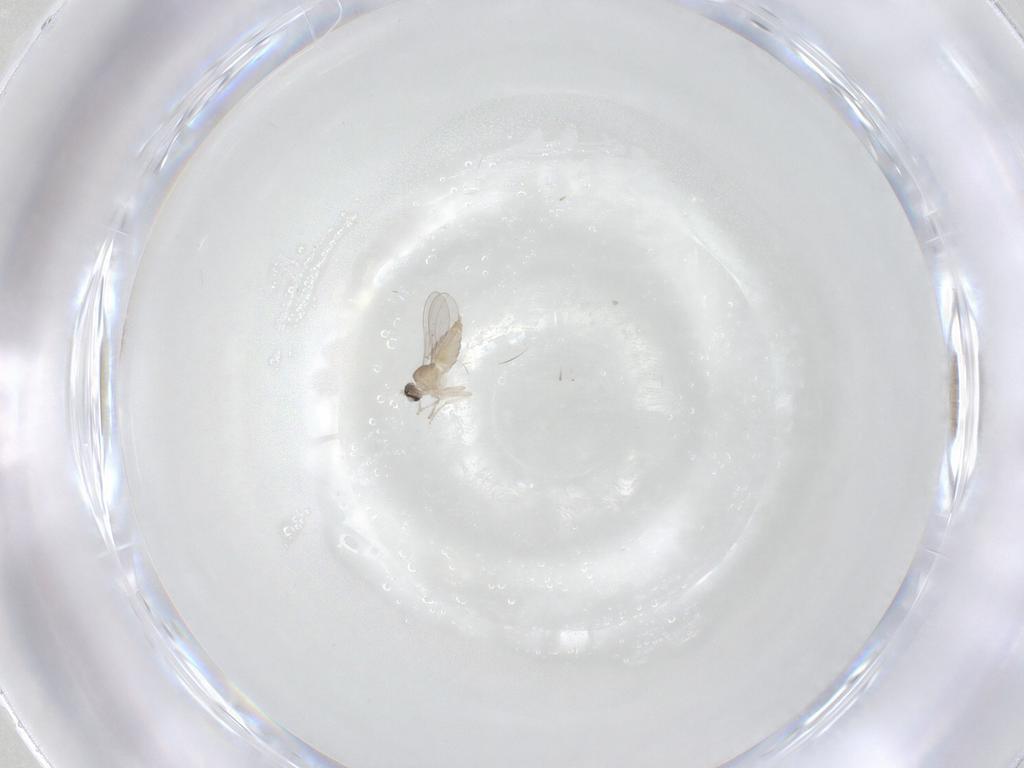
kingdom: Animalia
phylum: Arthropoda
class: Insecta
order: Diptera
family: Cecidomyiidae
